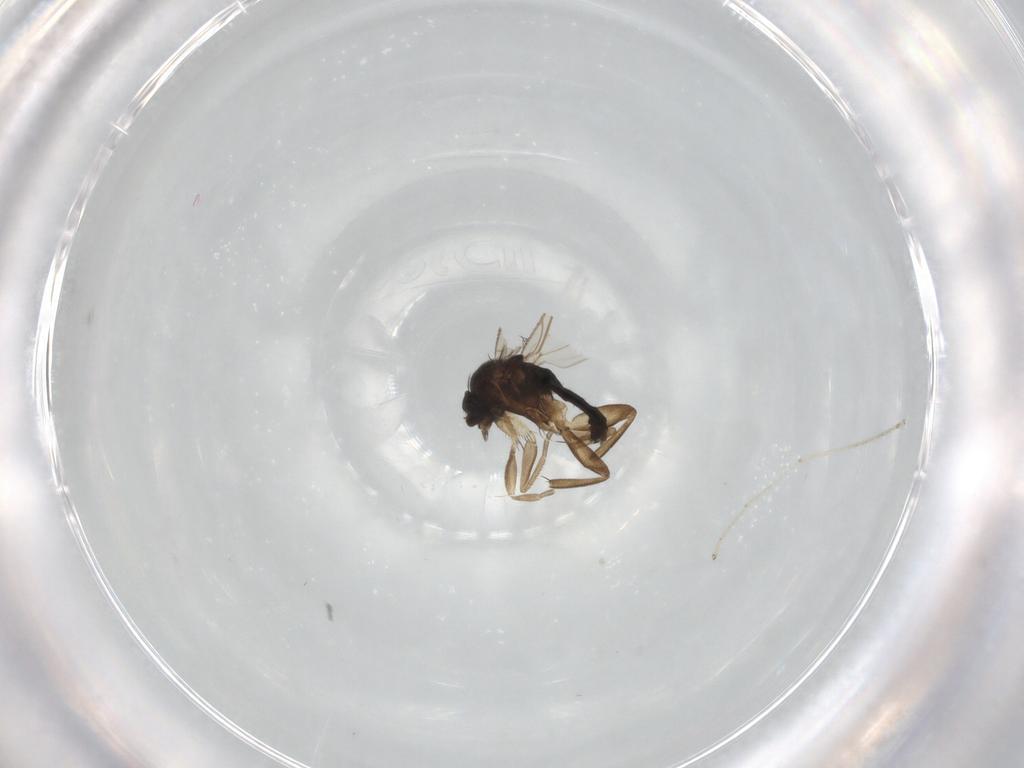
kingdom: Animalia
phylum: Arthropoda
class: Insecta
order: Diptera
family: Phoridae
